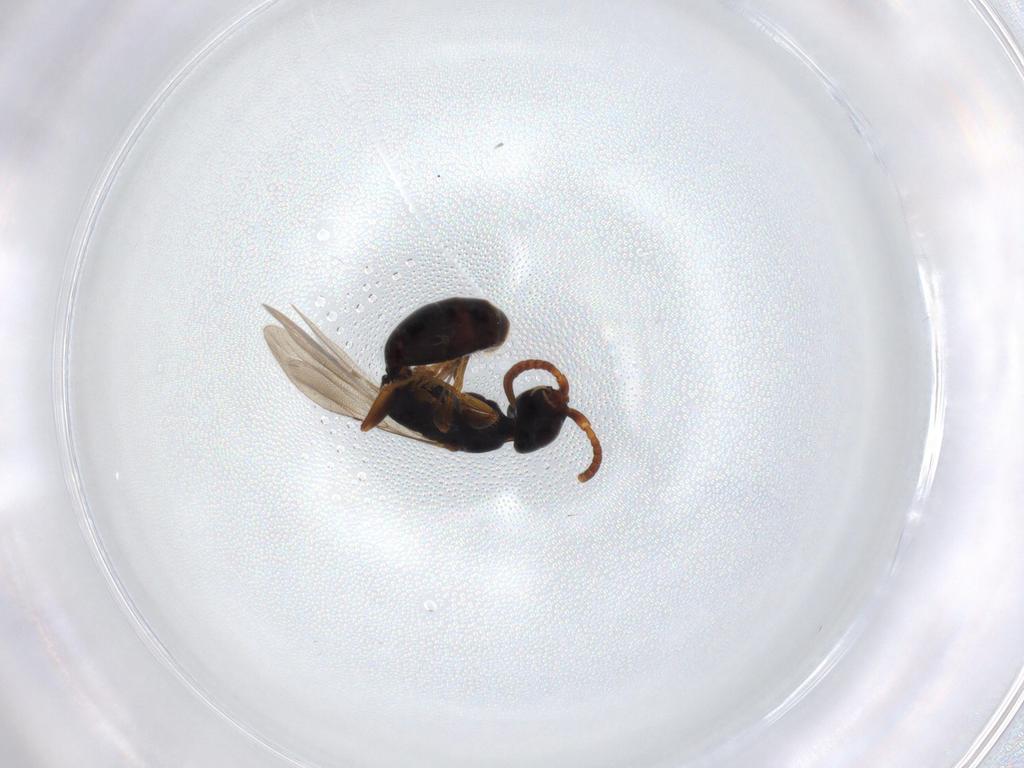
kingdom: Animalia
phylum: Arthropoda
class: Insecta
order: Hymenoptera
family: Bethylidae
